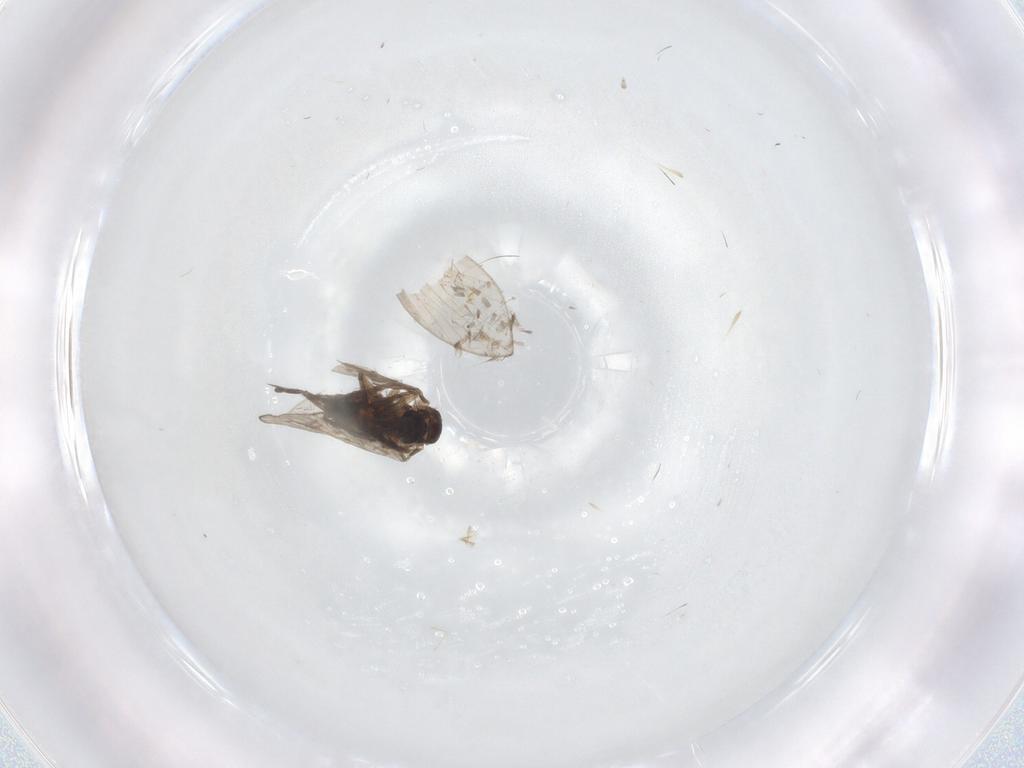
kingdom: Animalia
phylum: Arthropoda
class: Insecta
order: Diptera
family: Psychodidae
